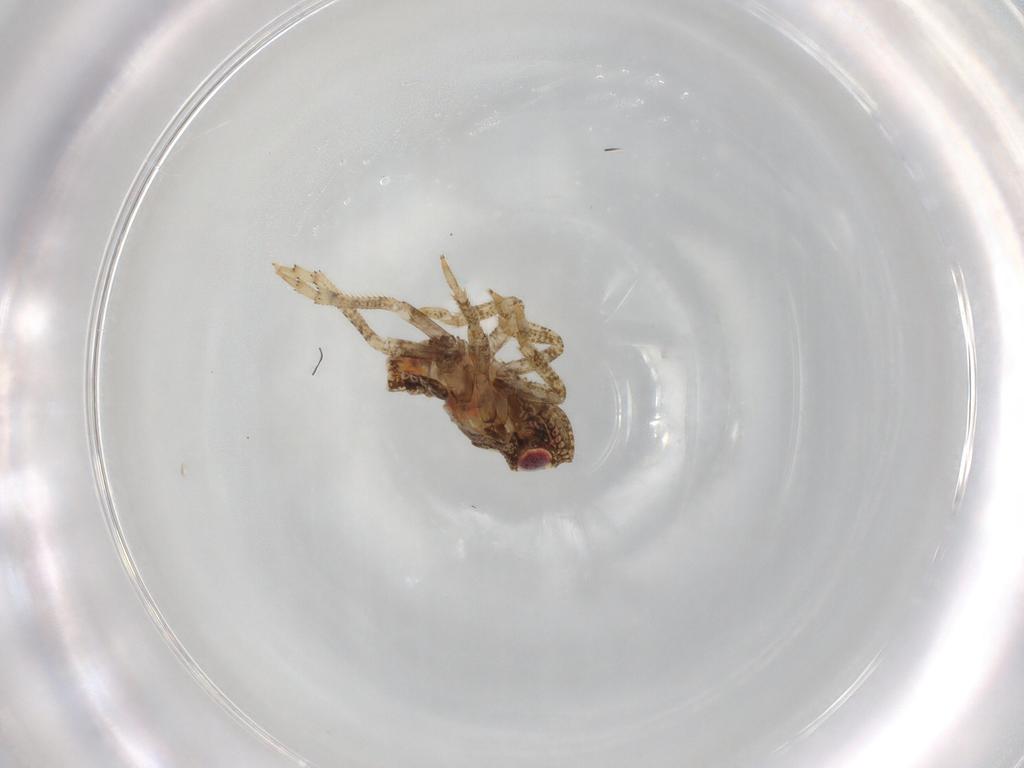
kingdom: Animalia
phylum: Arthropoda
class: Insecta
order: Hemiptera
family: Fulgoroidea_incertae_sedis
